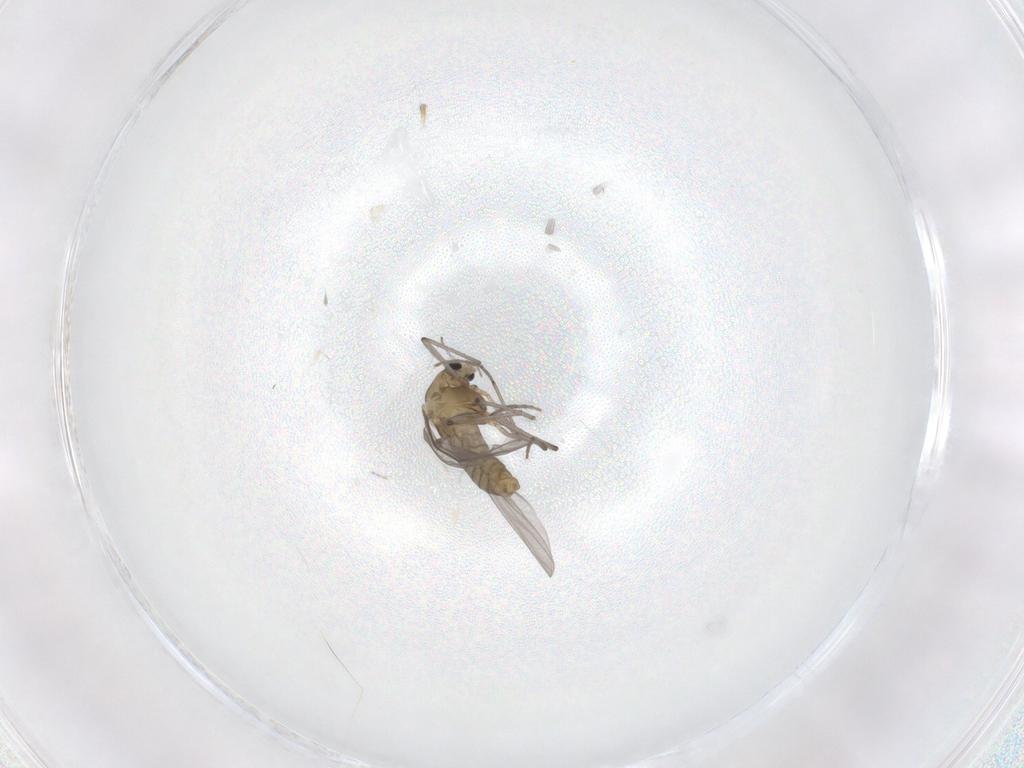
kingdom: Animalia
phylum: Arthropoda
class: Insecta
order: Diptera
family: Chironomidae
